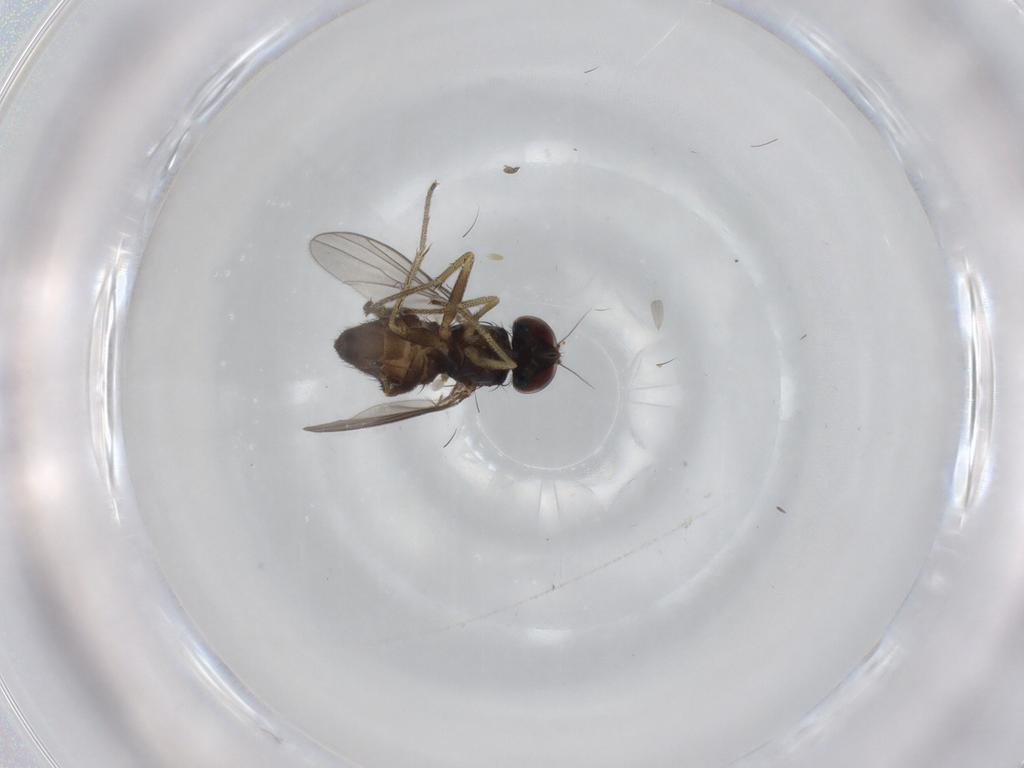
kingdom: Animalia
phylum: Arthropoda
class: Insecta
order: Diptera
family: Dolichopodidae
